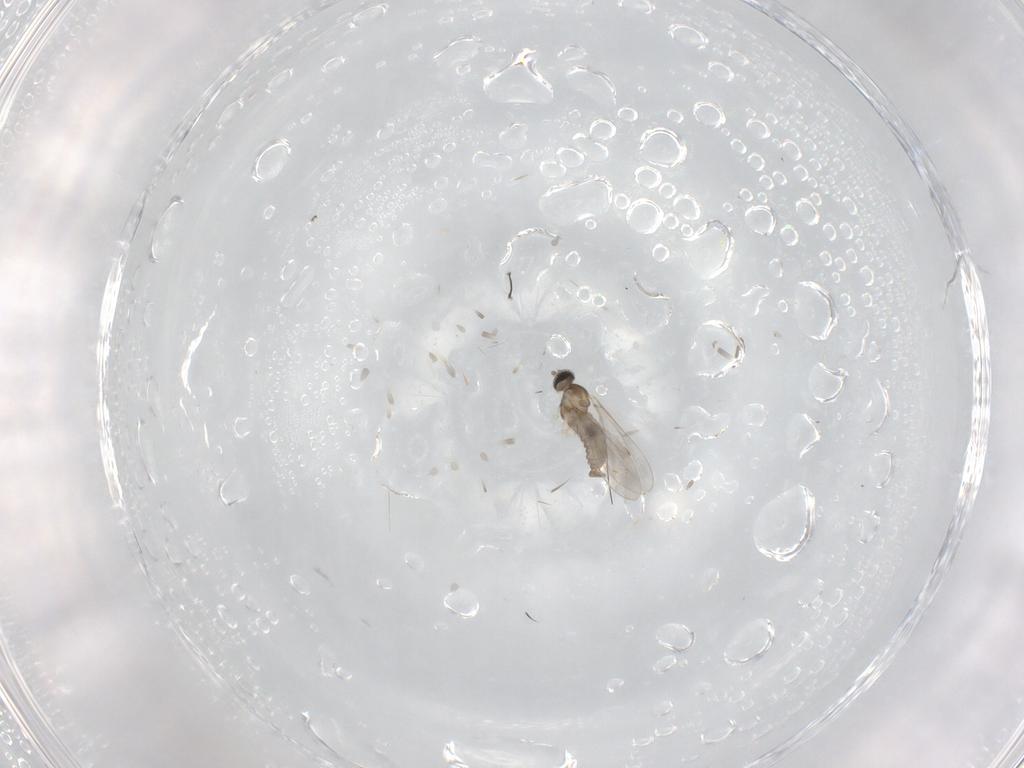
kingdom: Animalia
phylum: Arthropoda
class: Insecta
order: Diptera
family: Cecidomyiidae
